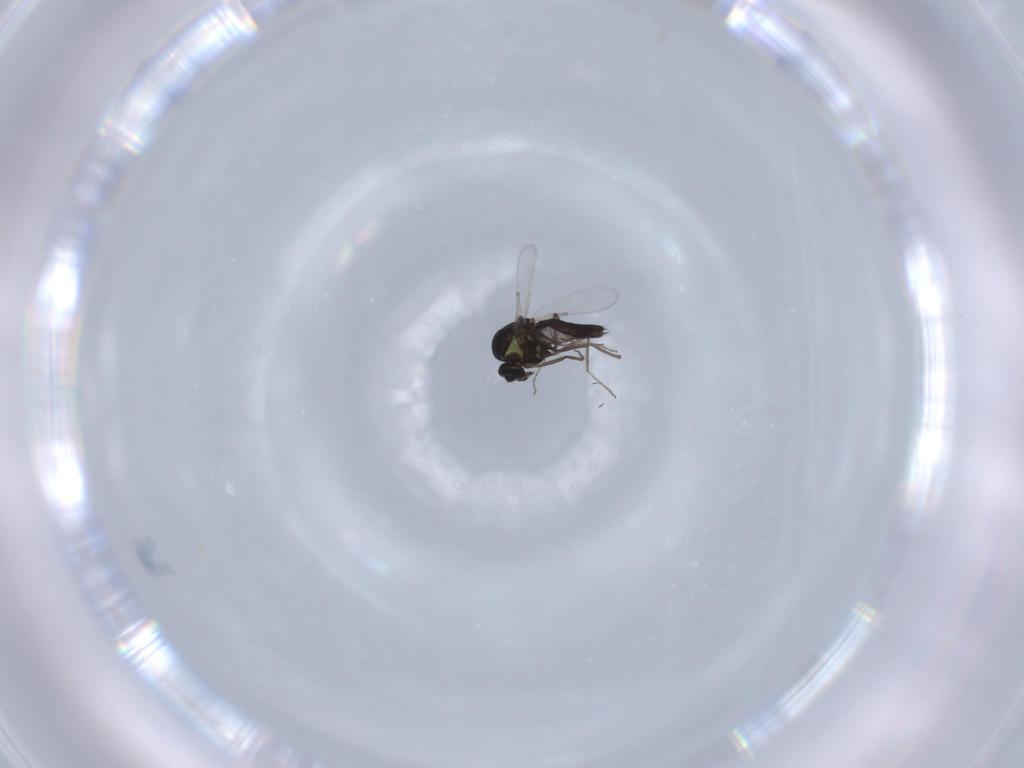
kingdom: Animalia
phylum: Arthropoda
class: Insecta
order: Diptera
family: Ceratopogonidae
